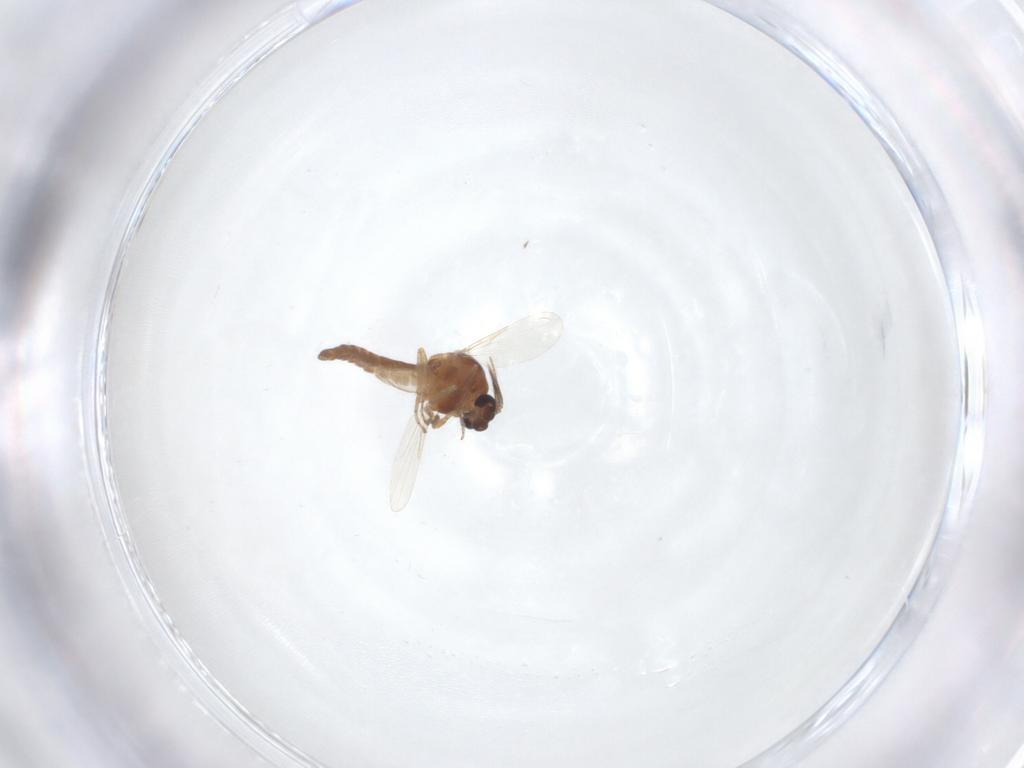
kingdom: Animalia
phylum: Arthropoda
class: Insecta
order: Diptera
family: Ceratopogonidae
